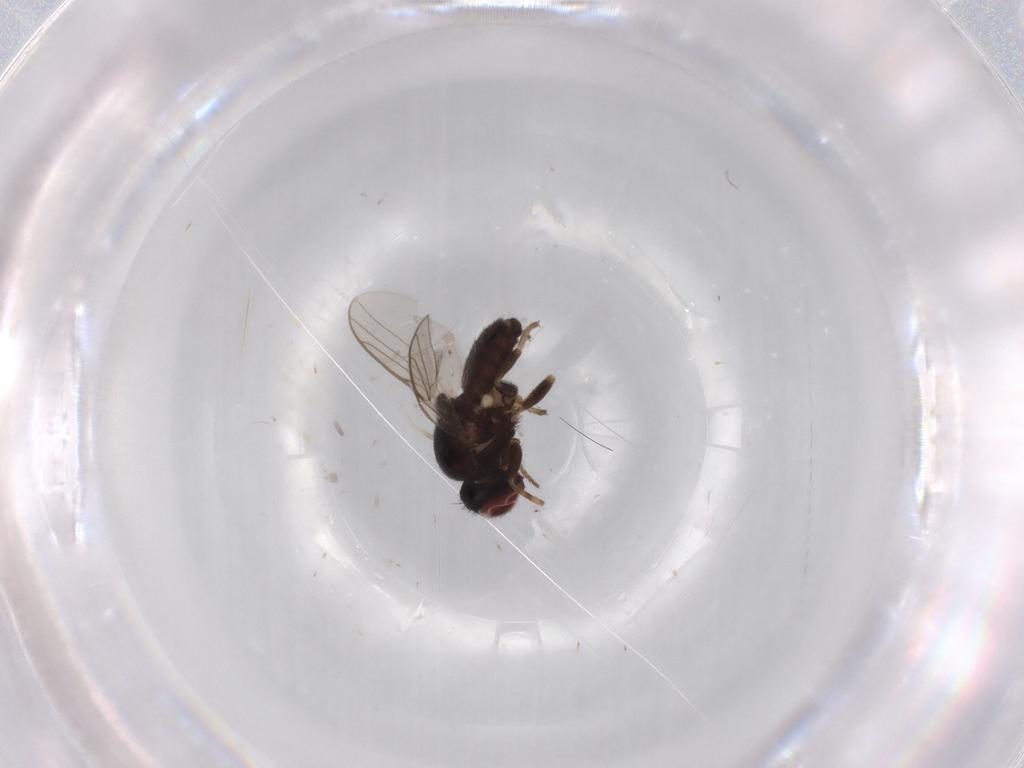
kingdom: Animalia
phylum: Arthropoda
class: Insecta
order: Diptera
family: Chloropidae
